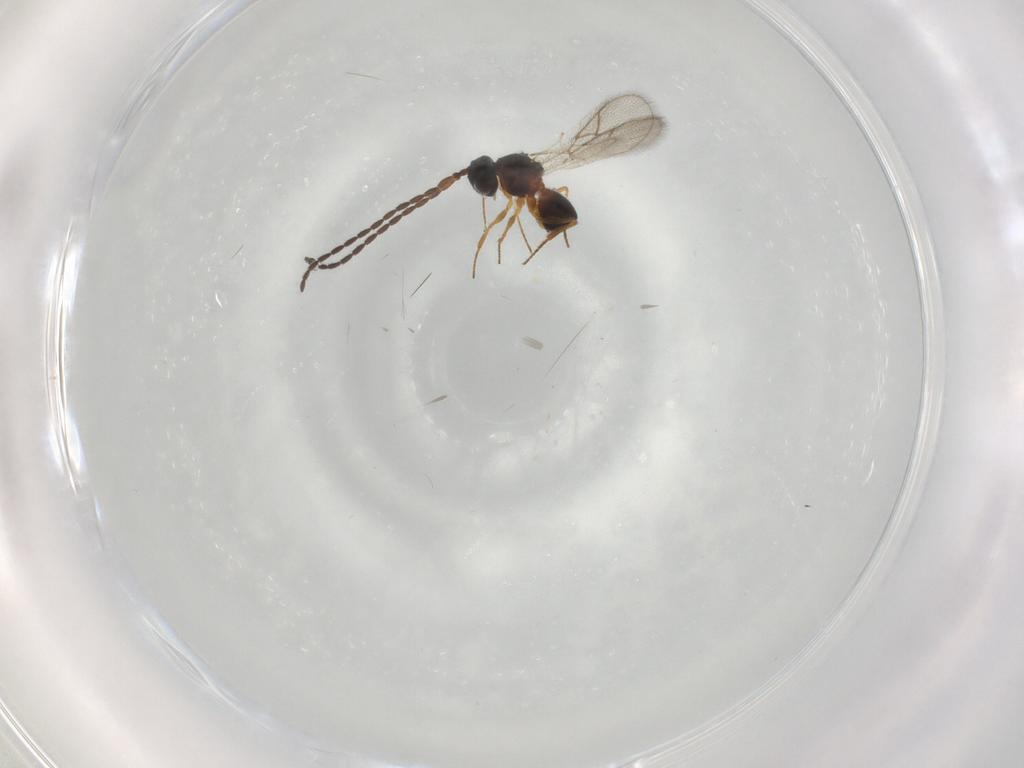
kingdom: Animalia
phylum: Arthropoda
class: Insecta
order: Hymenoptera
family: Figitidae
